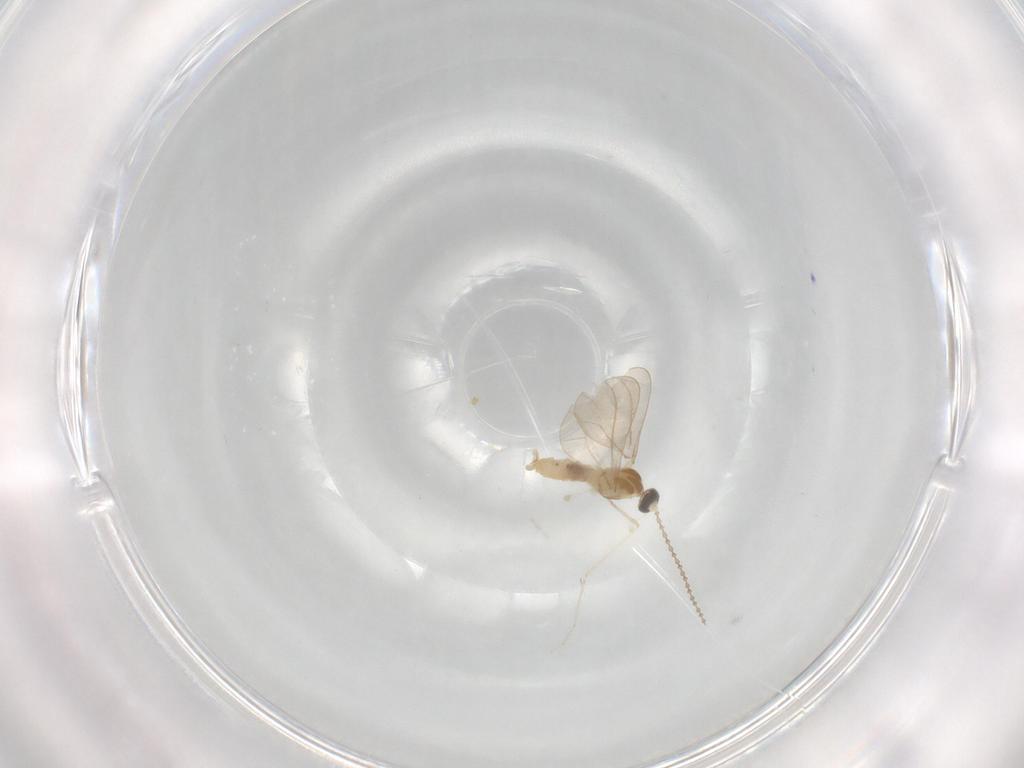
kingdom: Animalia
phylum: Arthropoda
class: Insecta
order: Diptera
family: Cecidomyiidae
